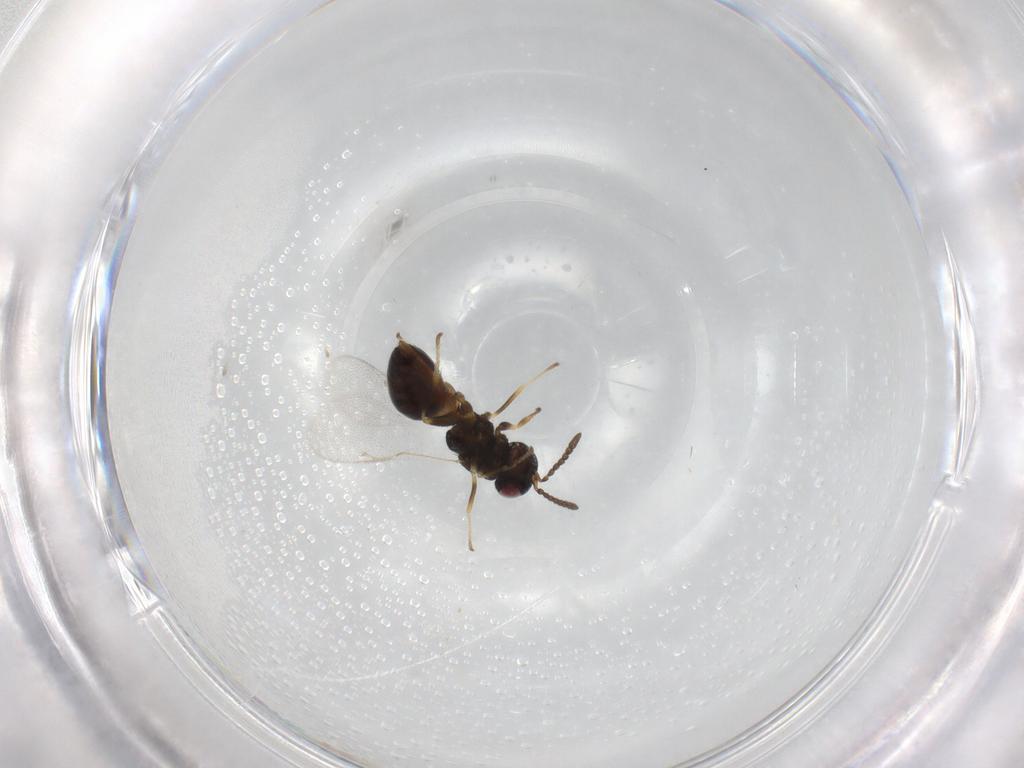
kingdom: Animalia
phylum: Arthropoda
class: Insecta
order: Hymenoptera
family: Eurytomidae
